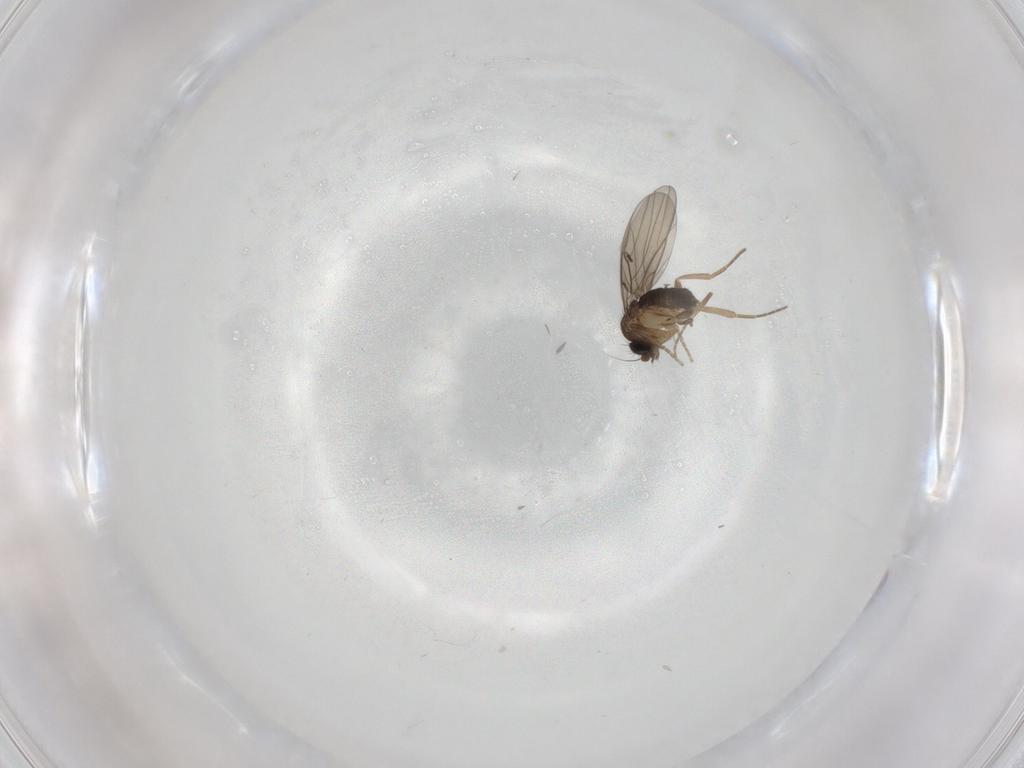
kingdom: Animalia
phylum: Arthropoda
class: Insecta
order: Diptera
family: Phoridae
